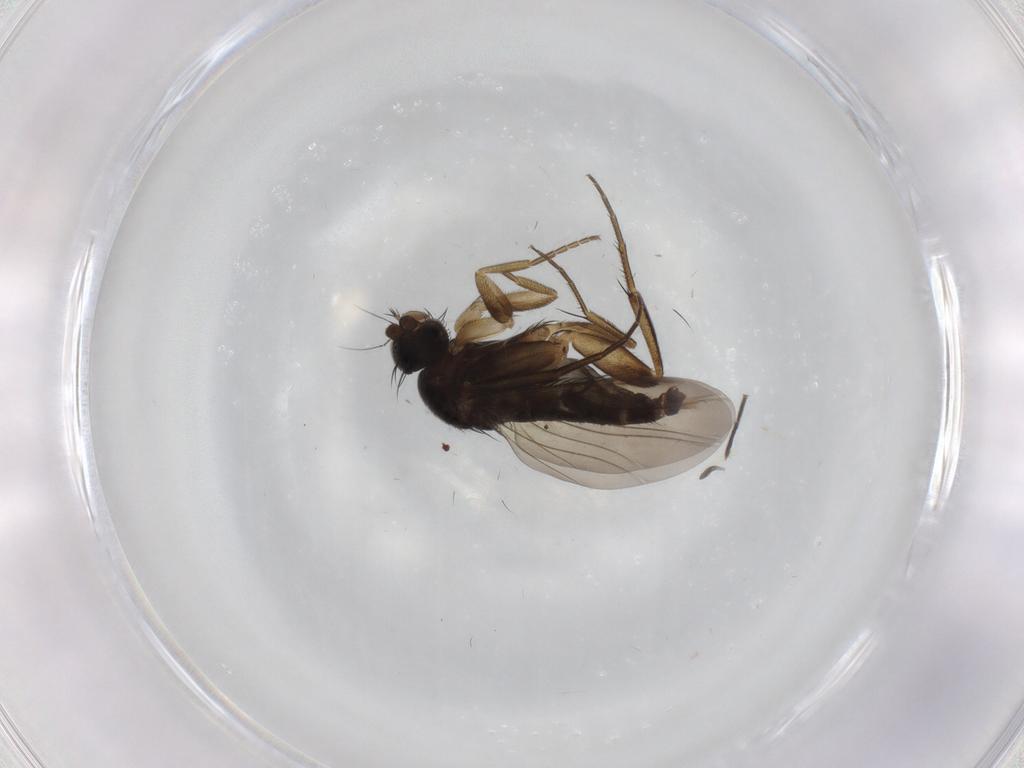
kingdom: Animalia
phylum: Arthropoda
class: Insecta
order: Diptera
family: Phoridae
